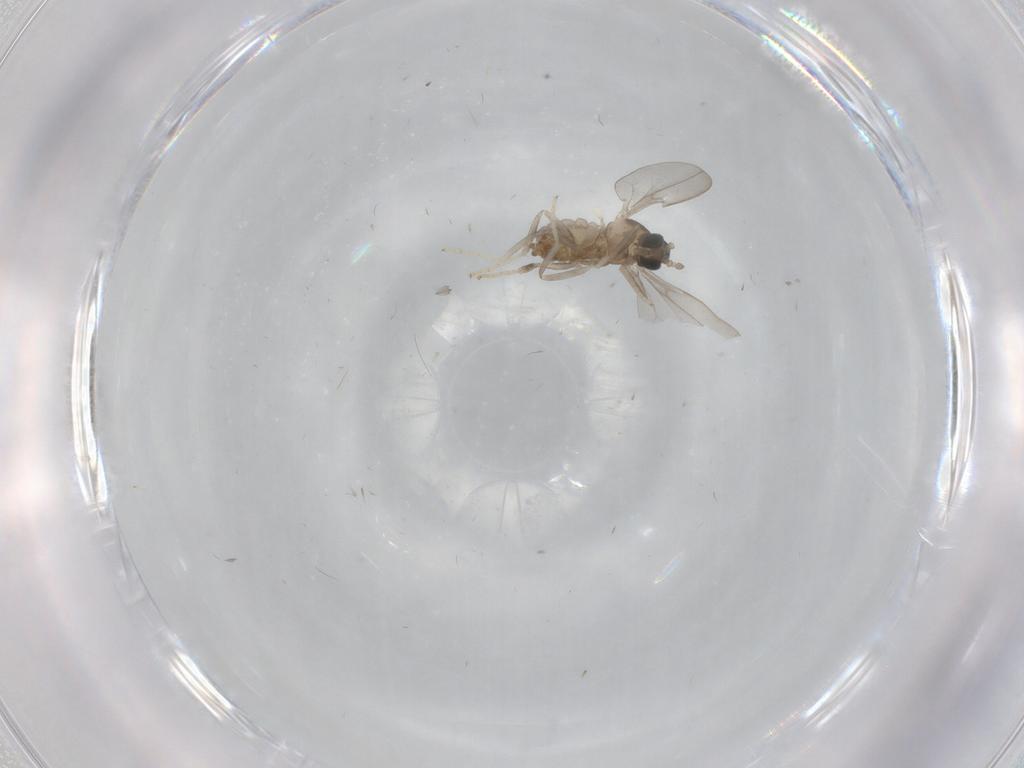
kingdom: Animalia
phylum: Arthropoda
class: Insecta
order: Diptera
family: Cecidomyiidae
